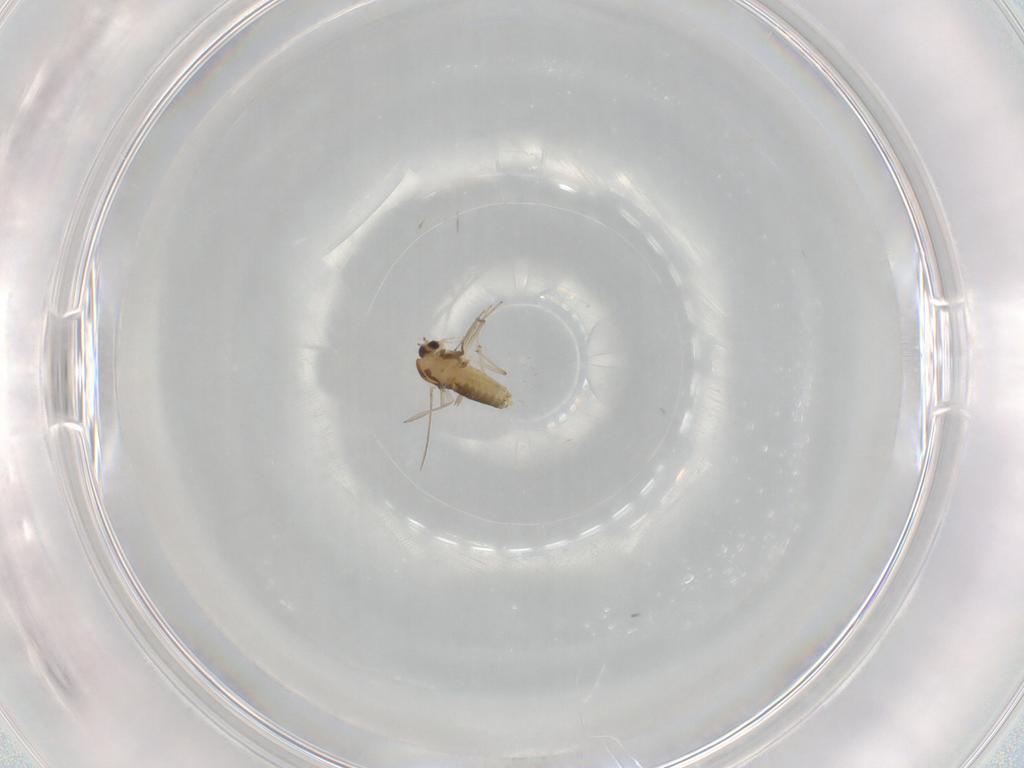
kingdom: Animalia
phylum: Arthropoda
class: Insecta
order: Diptera
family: Chironomidae
